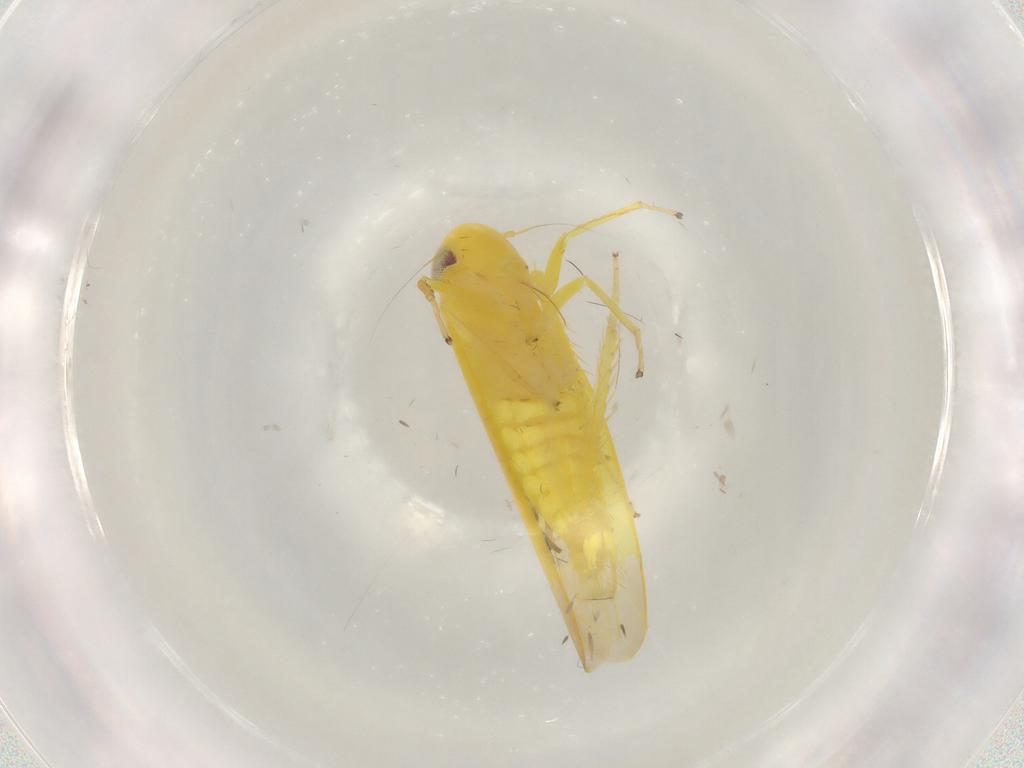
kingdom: Animalia
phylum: Arthropoda
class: Insecta
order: Hemiptera
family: Cicadellidae
